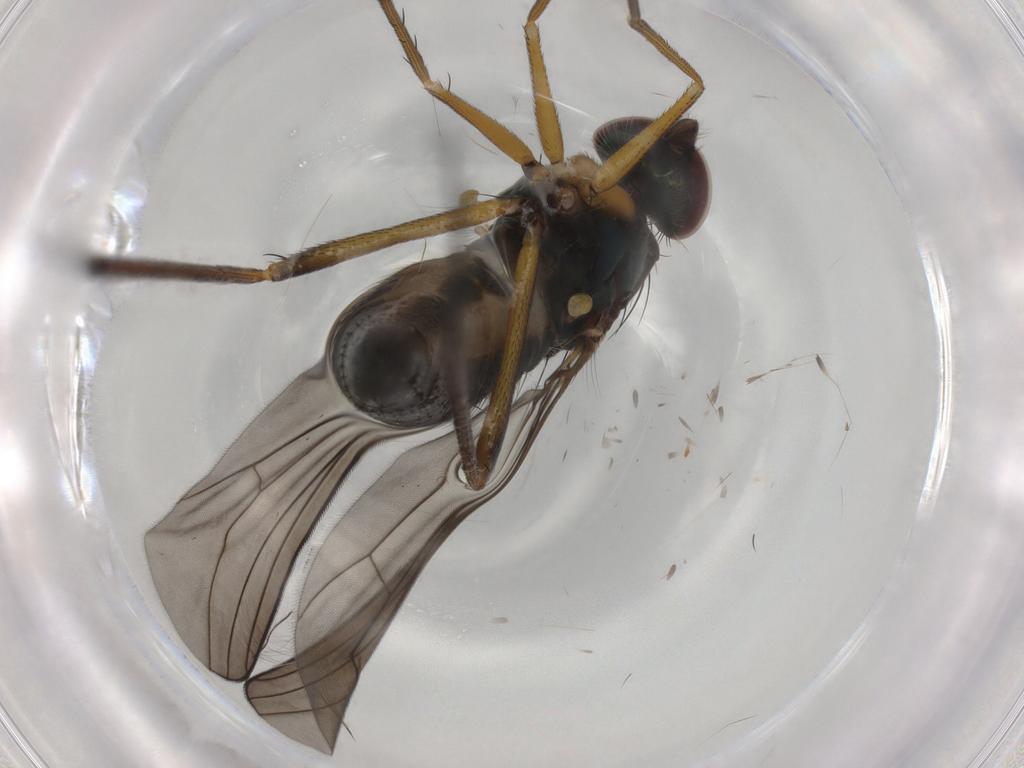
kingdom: Animalia
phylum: Arthropoda
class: Insecta
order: Diptera
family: Dolichopodidae
